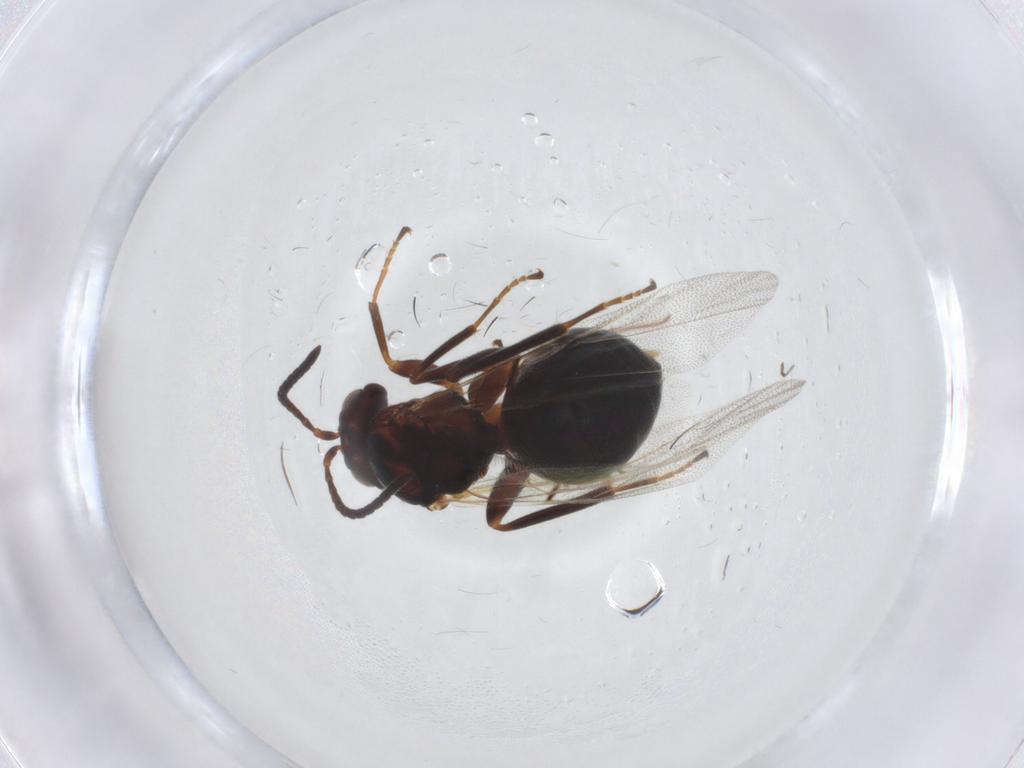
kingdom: Animalia
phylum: Arthropoda
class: Insecta
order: Hymenoptera
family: Cynipidae
